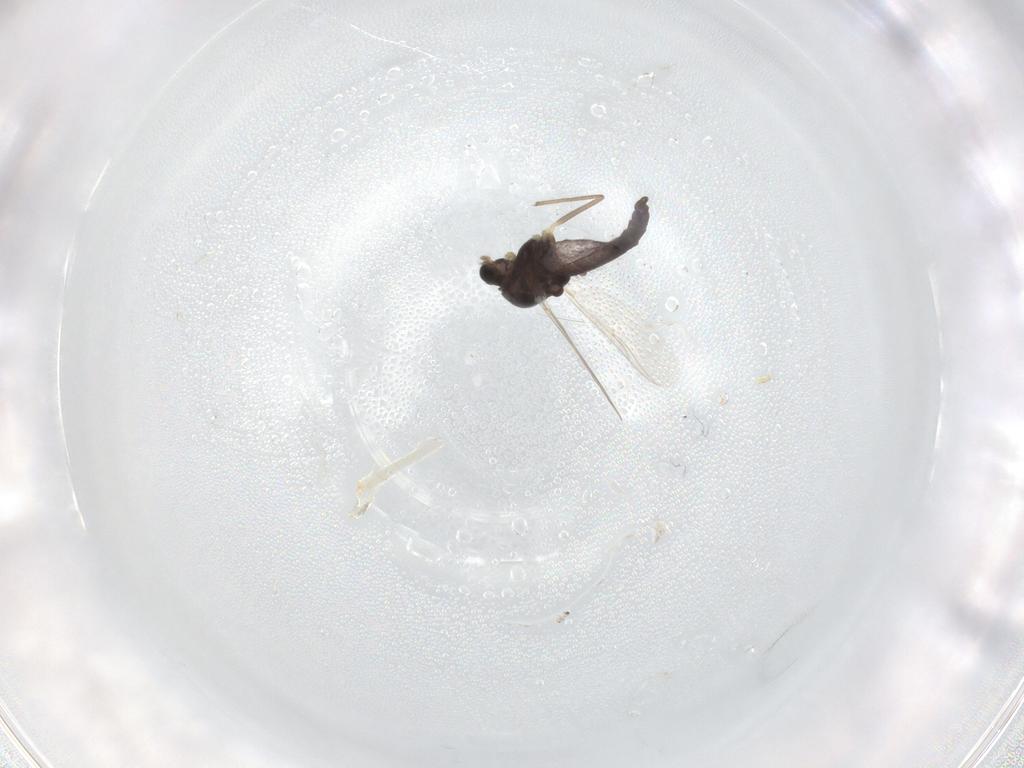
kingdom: Animalia
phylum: Arthropoda
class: Insecta
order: Diptera
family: Chironomidae
